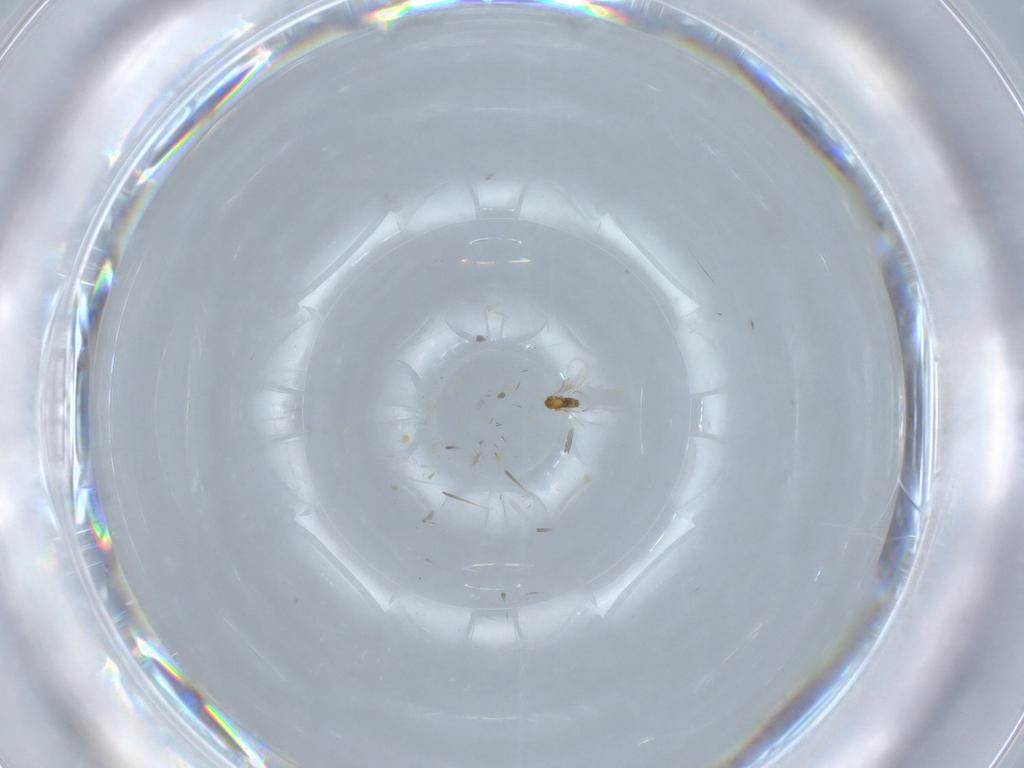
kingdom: Animalia
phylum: Arthropoda
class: Insecta
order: Hymenoptera
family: Trichogrammatidae
